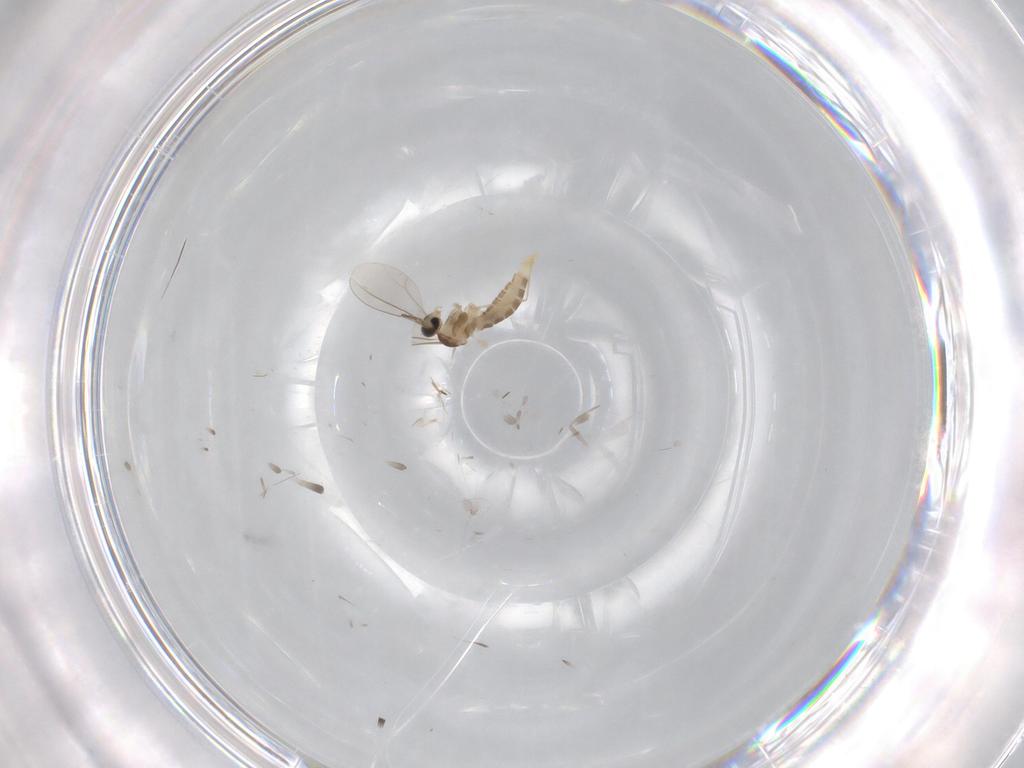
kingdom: Animalia
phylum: Arthropoda
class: Insecta
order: Diptera
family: Cecidomyiidae
